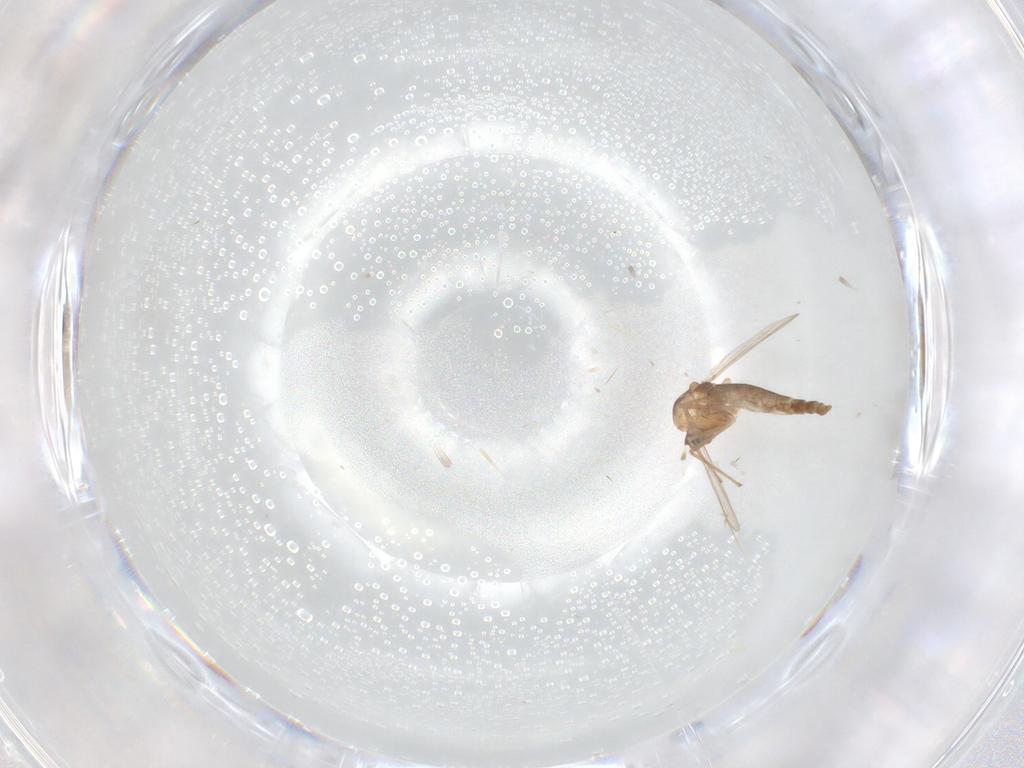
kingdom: Animalia
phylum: Arthropoda
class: Insecta
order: Diptera
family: Chironomidae
